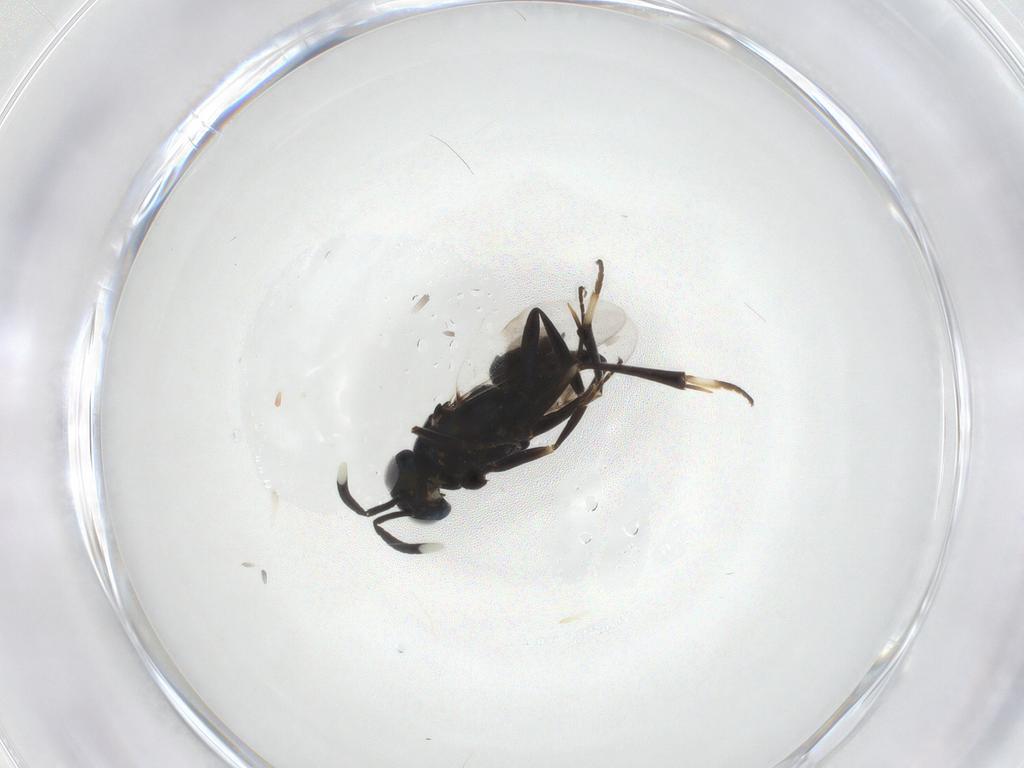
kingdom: Animalia
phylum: Arthropoda
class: Insecta
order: Hymenoptera
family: Encyrtidae
